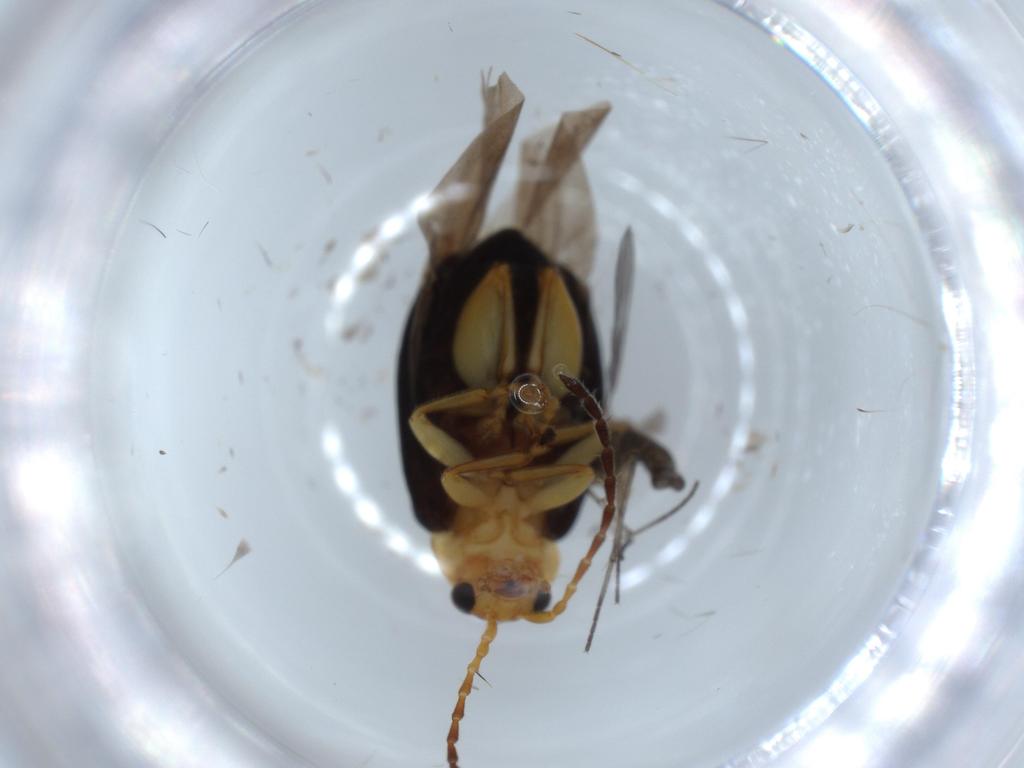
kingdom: Animalia
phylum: Arthropoda
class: Insecta
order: Coleoptera
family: Chrysomelidae
